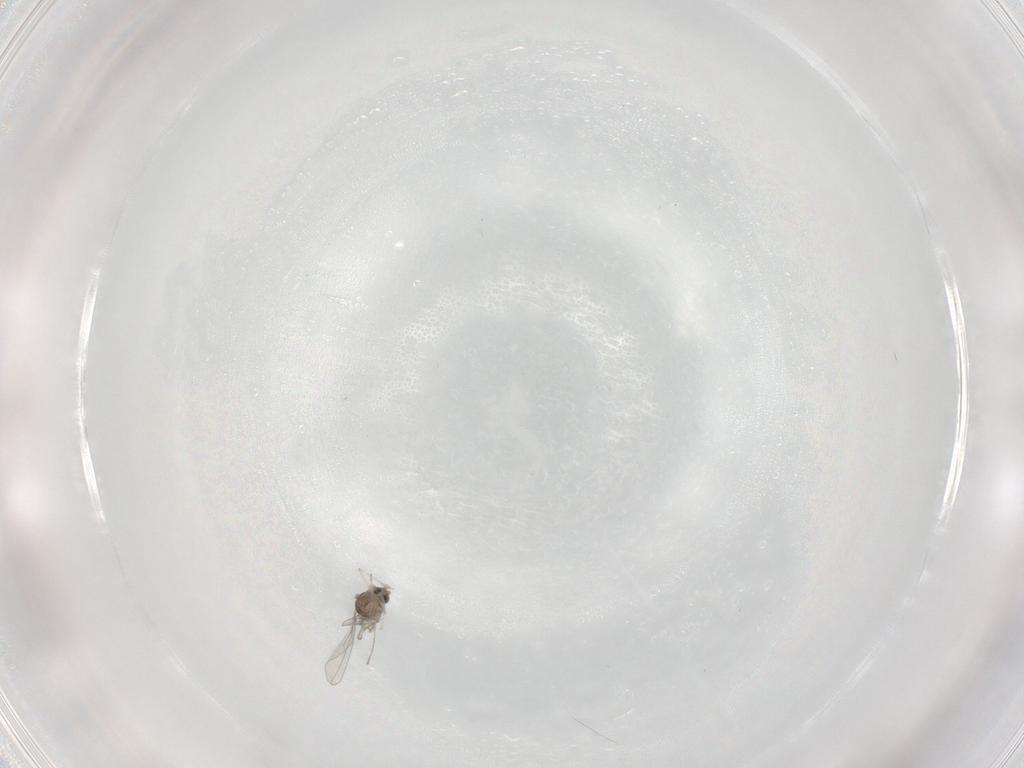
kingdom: Animalia
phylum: Arthropoda
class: Insecta
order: Diptera
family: Cecidomyiidae
